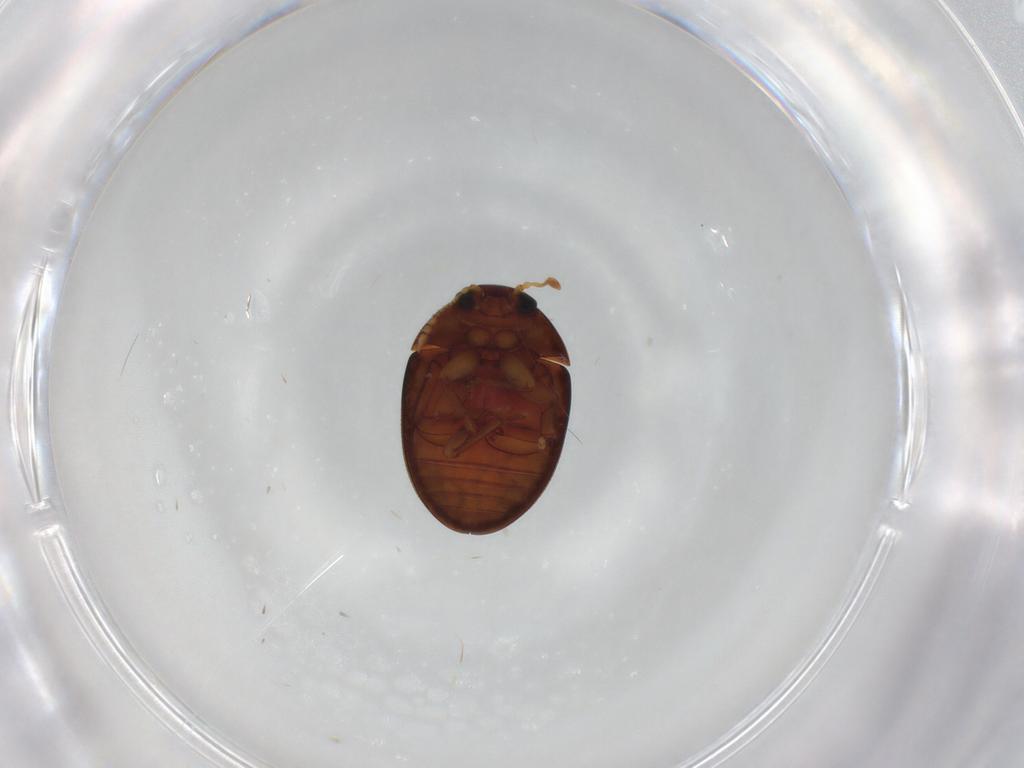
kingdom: Animalia
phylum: Arthropoda
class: Insecta
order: Coleoptera
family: Phalacridae
